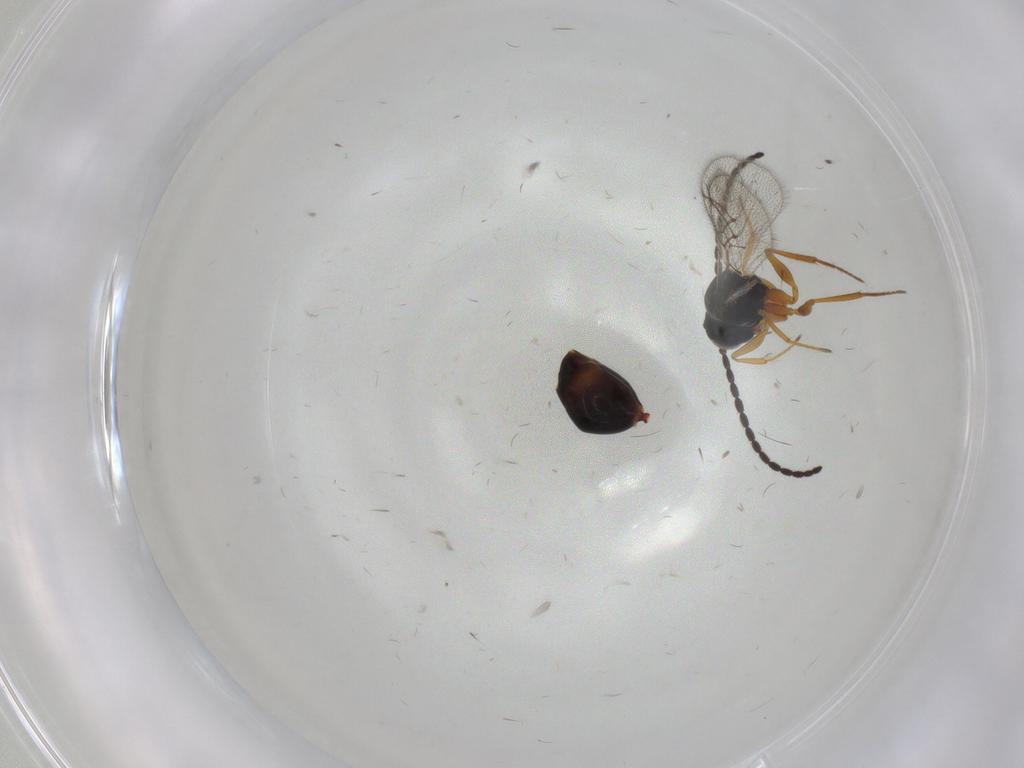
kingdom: Animalia
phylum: Arthropoda
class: Insecta
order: Hymenoptera
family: Figitidae
